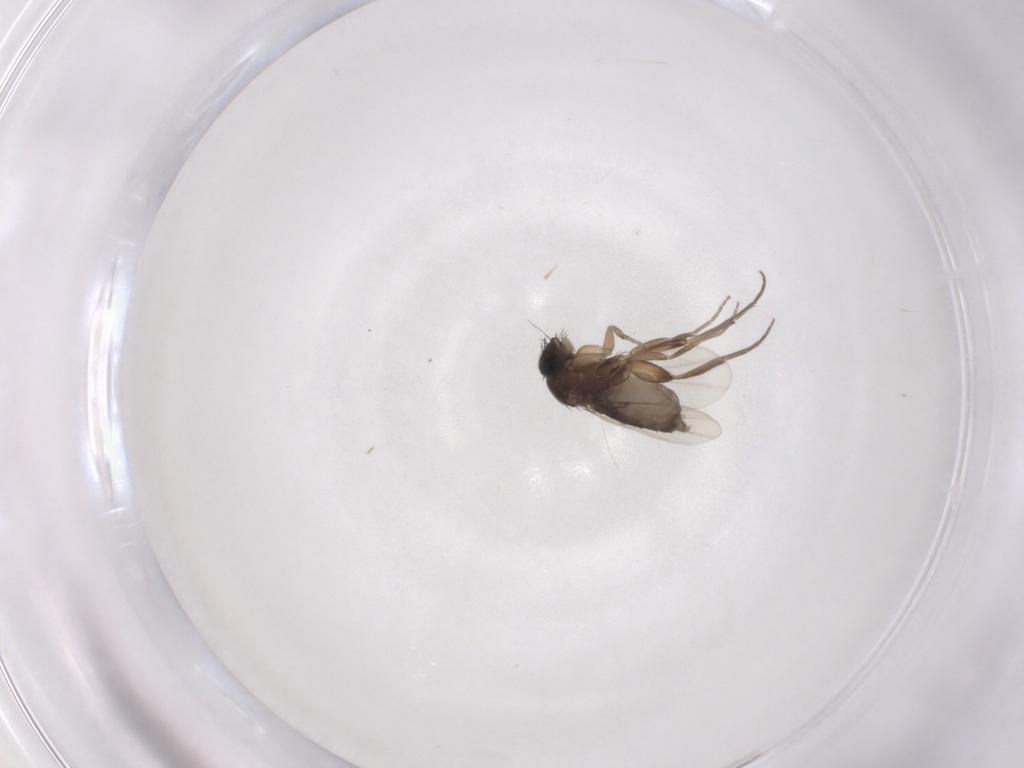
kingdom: Animalia
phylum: Arthropoda
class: Insecta
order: Diptera
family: Phoridae
